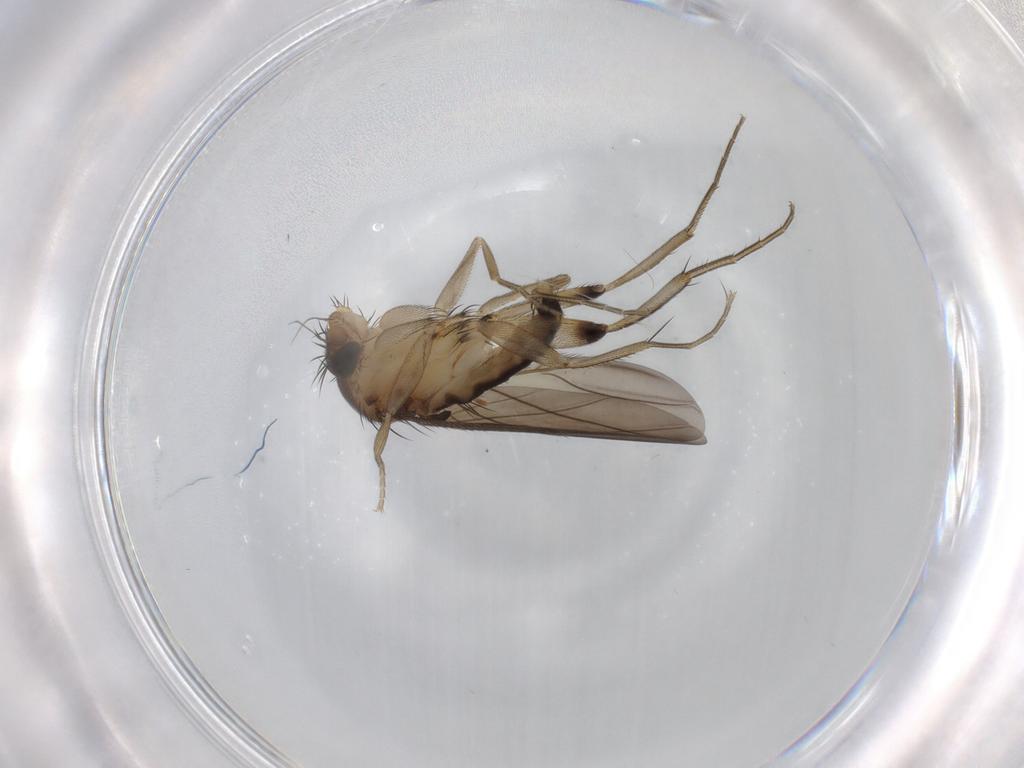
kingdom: Animalia
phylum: Arthropoda
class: Insecta
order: Diptera
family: Phoridae
